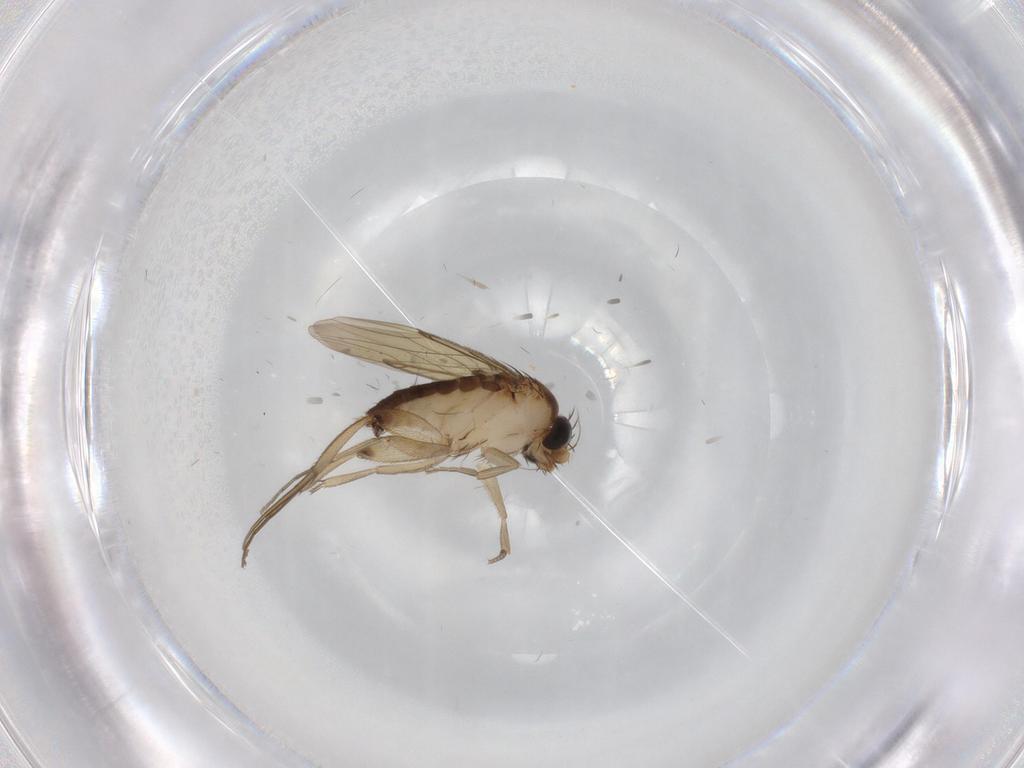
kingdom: Animalia
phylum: Arthropoda
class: Insecta
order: Diptera
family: Phoridae
